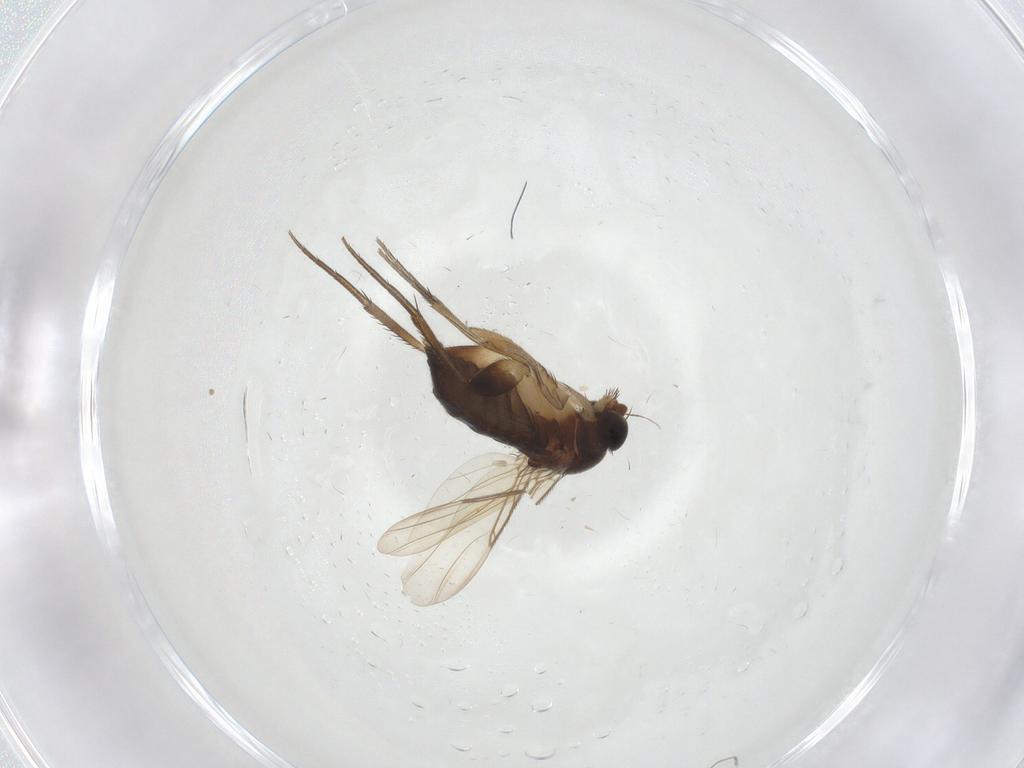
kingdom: Animalia
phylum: Arthropoda
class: Insecta
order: Diptera
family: Phoridae
